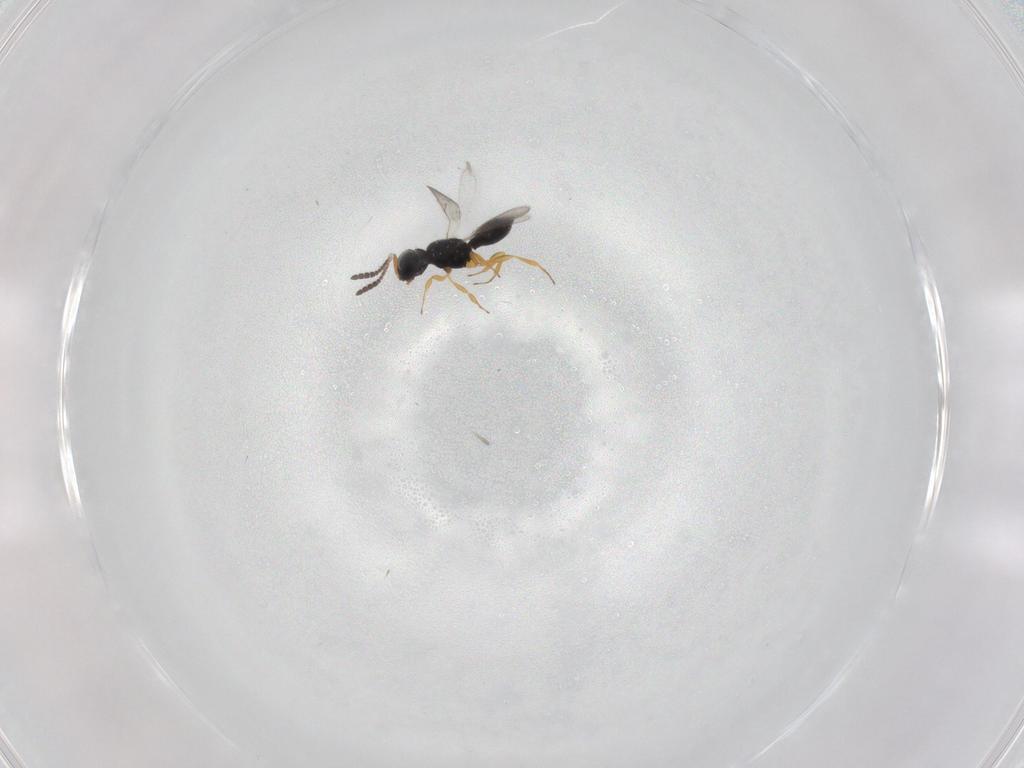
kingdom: Animalia
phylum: Arthropoda
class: Insecta
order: Hymenoptera
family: Scelionidae
